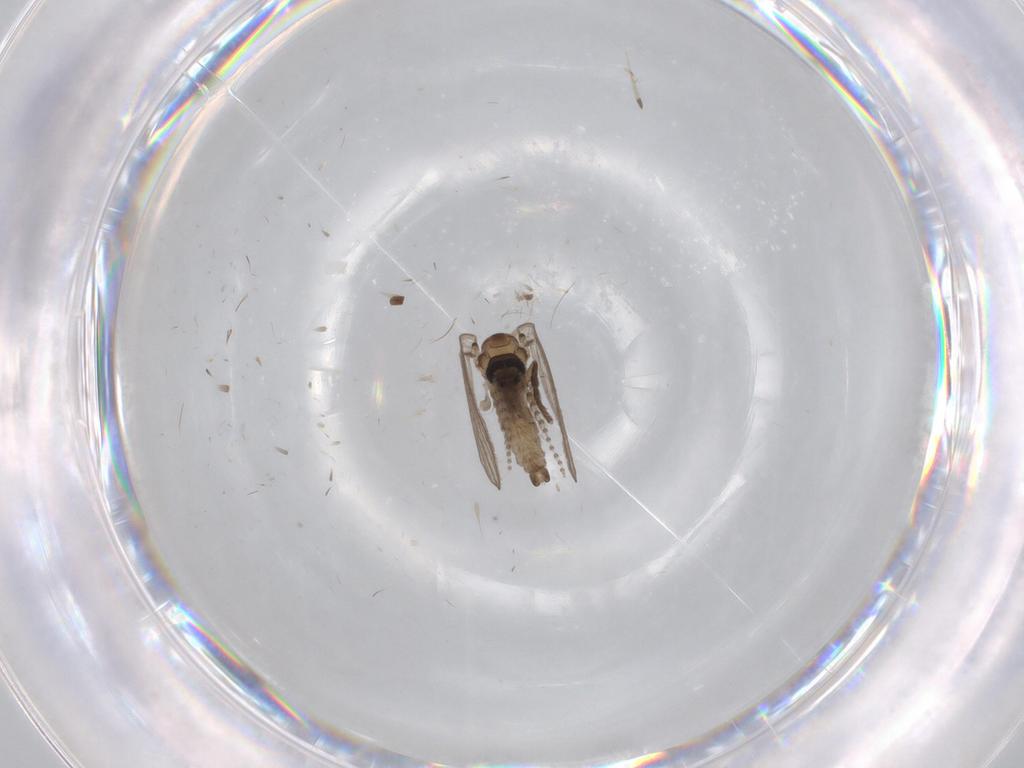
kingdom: Animalia
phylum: Arthropoda
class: Insecta
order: Diptera
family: Psychodidae
